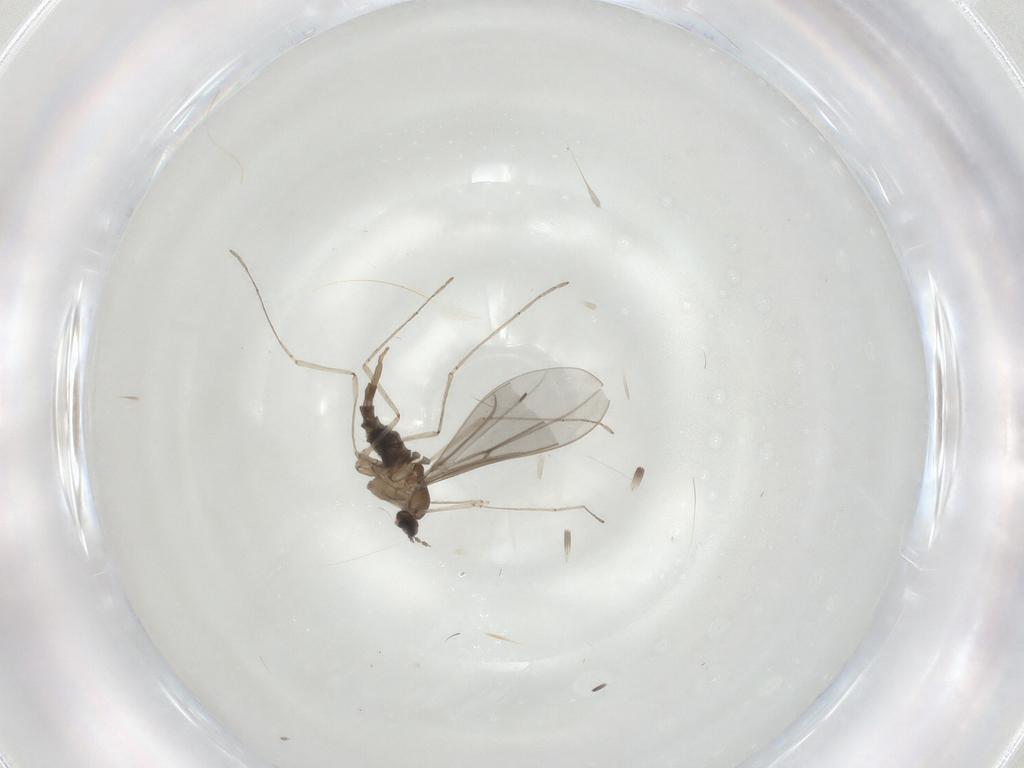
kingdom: Animalia
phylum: Arthropoda
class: Insecta
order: Diptera
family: Cecidomyiidae
